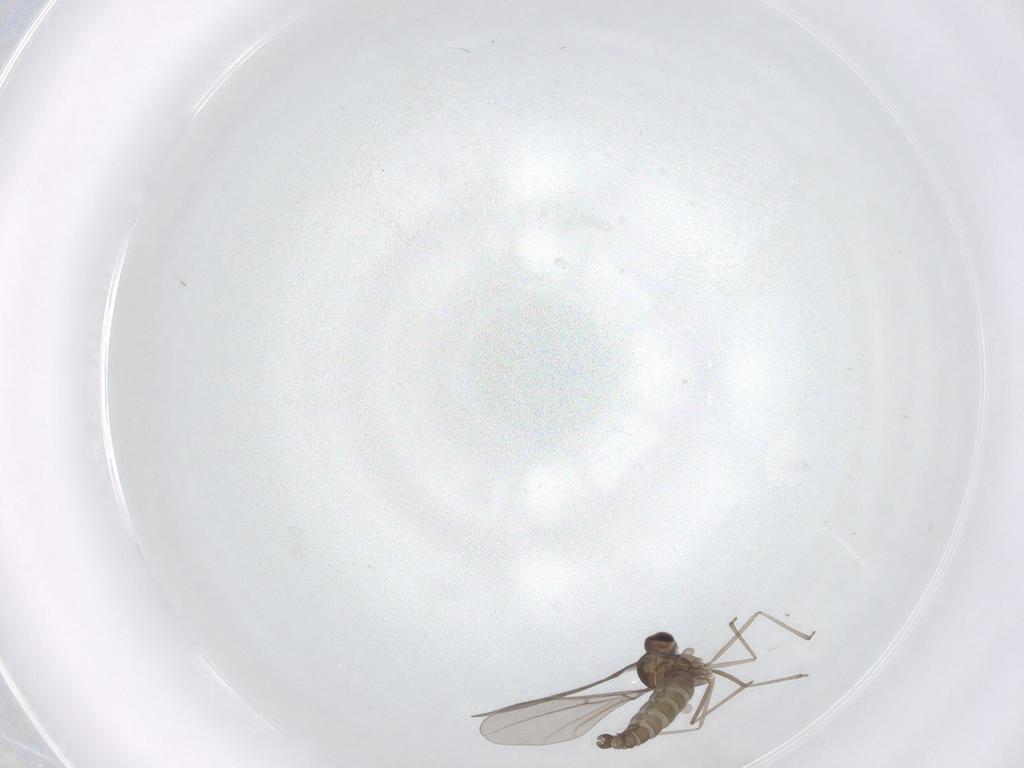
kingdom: Animalia
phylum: Arthropoda
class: Insecta
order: Diptera
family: Cecidomyiidae
